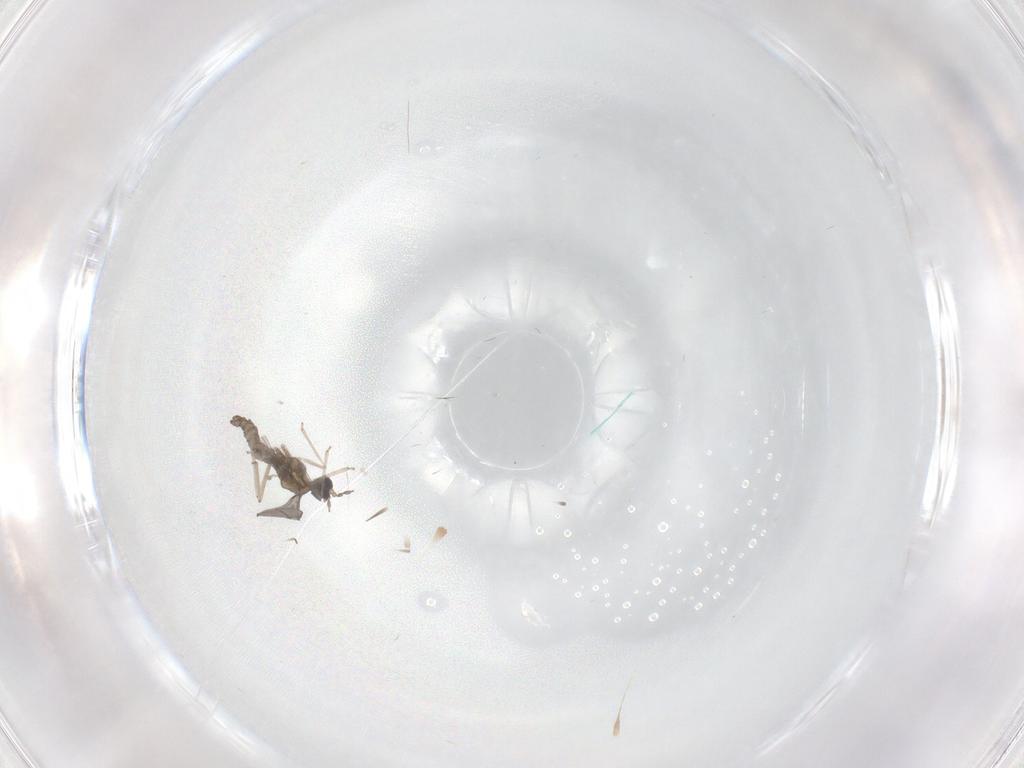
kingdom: Animalia
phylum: Arthropoda
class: Insecta
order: Diptera
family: Cecidomyiidae
